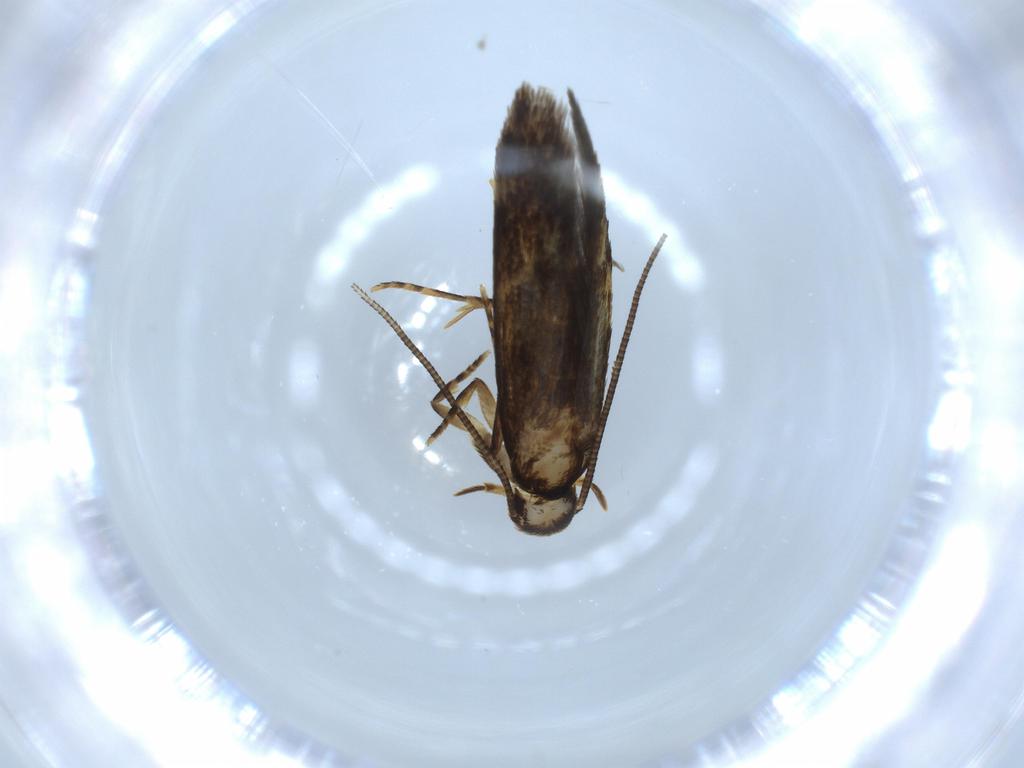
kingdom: Animalia
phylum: Arthropoda
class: Insecta
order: Lepidoptera
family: Tineidae
